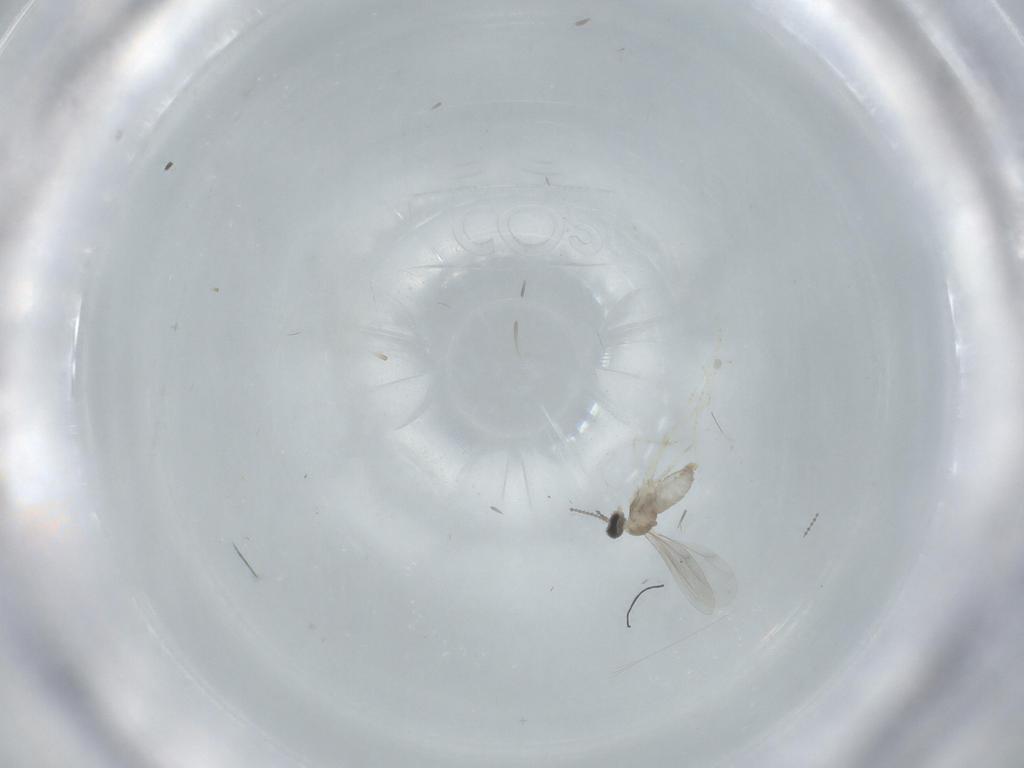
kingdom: Animalia
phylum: Arthropoda
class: Insecta
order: Diptera
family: Cecidomyiidae
